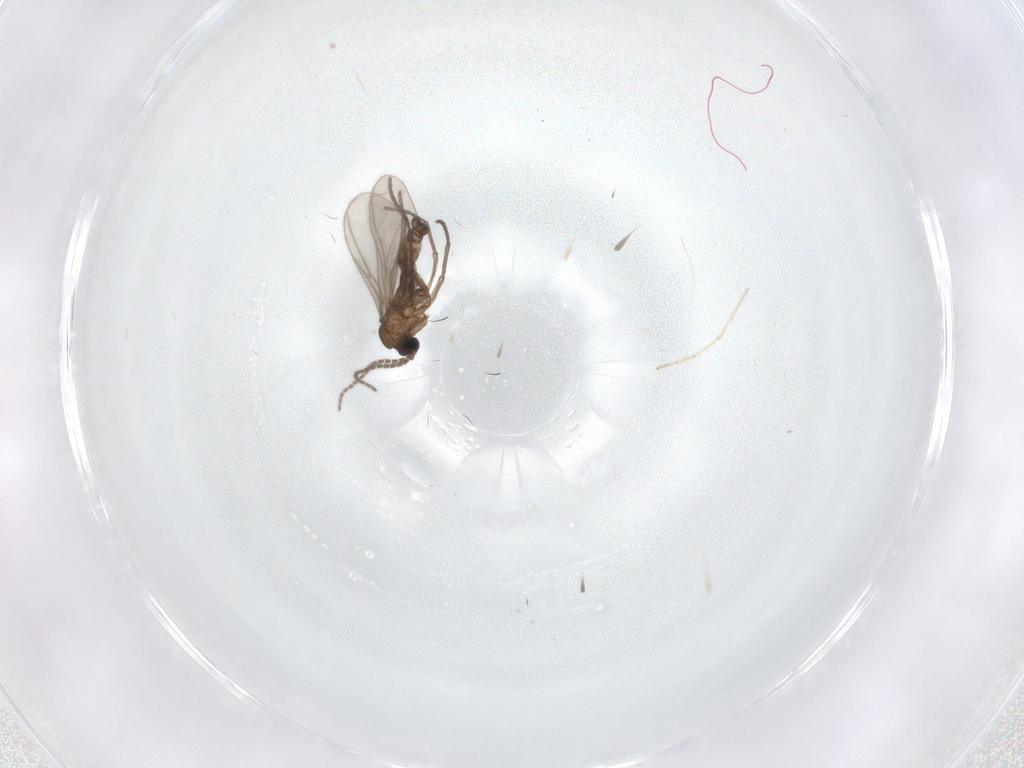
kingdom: Animalia
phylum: Arthropoda
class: Insecta
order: Diptera
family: Sciaridae
